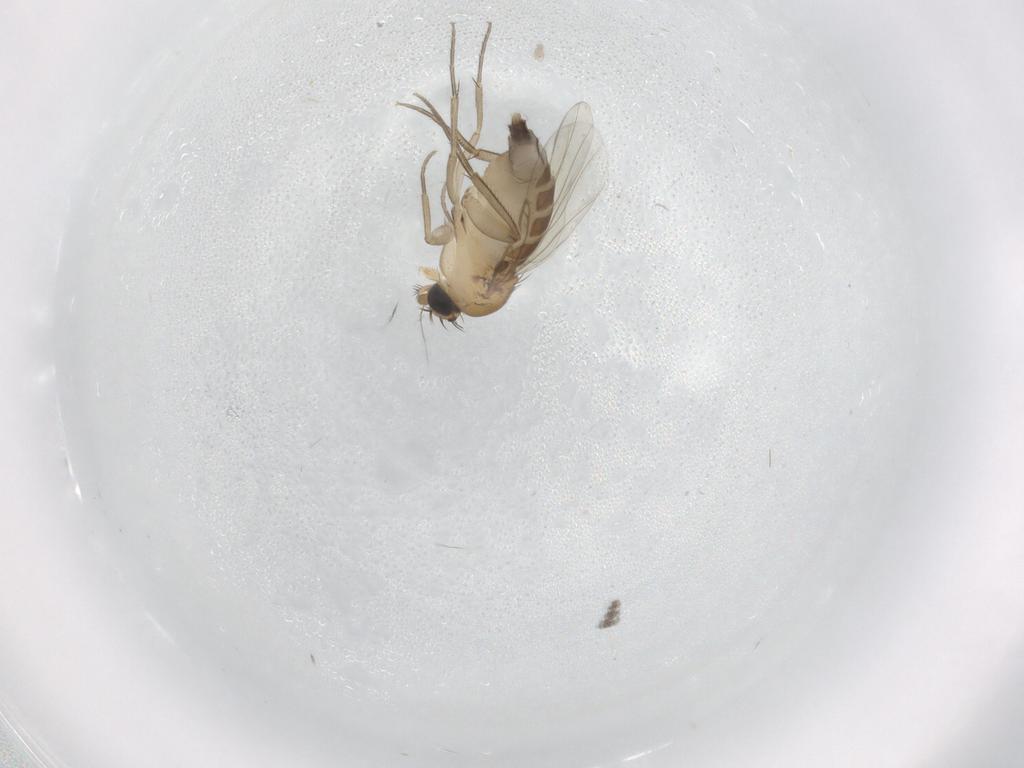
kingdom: Animalia
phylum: Arthropoda
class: Insecta
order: Diptera
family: Phoridae
